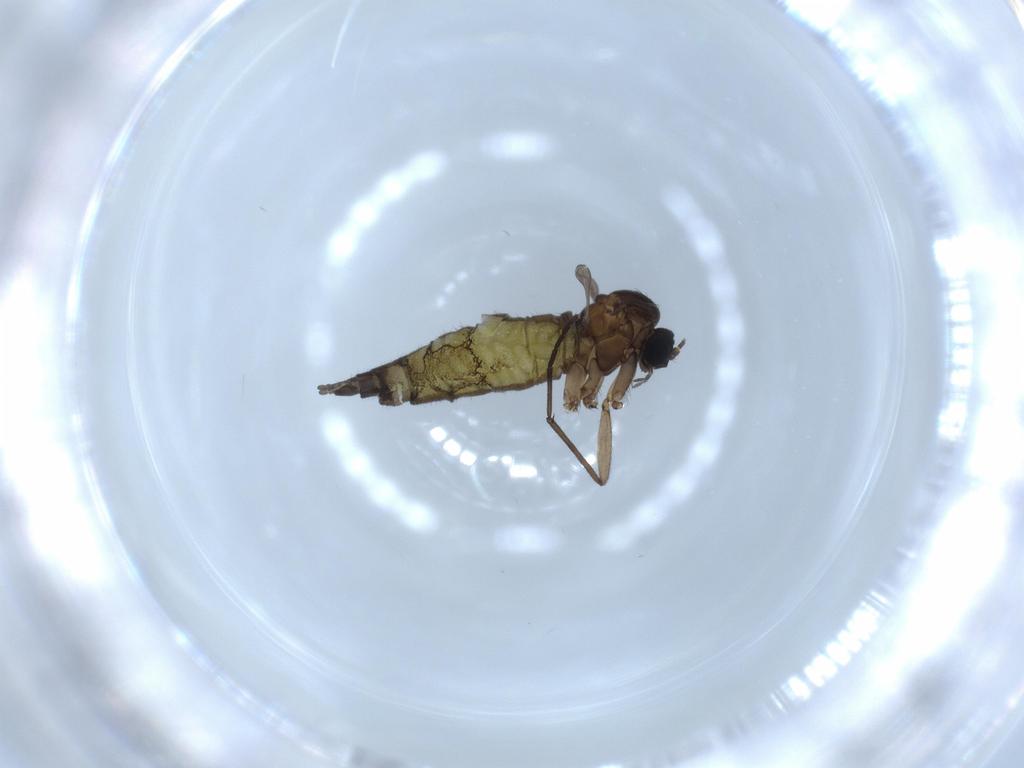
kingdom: Animalia
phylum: Arthropoda
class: Insecta
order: Diptera
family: Sciaridae
